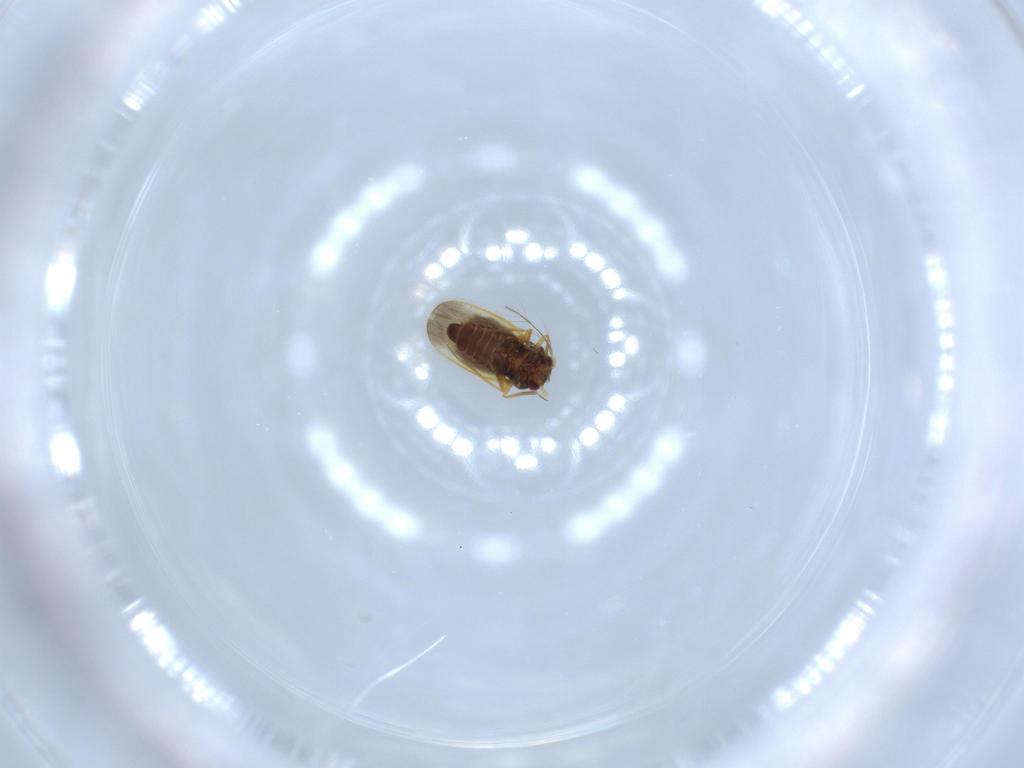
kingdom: Animalia
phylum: Arthropoda
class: Insecta
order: Hemiptera
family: Schizopteridae
